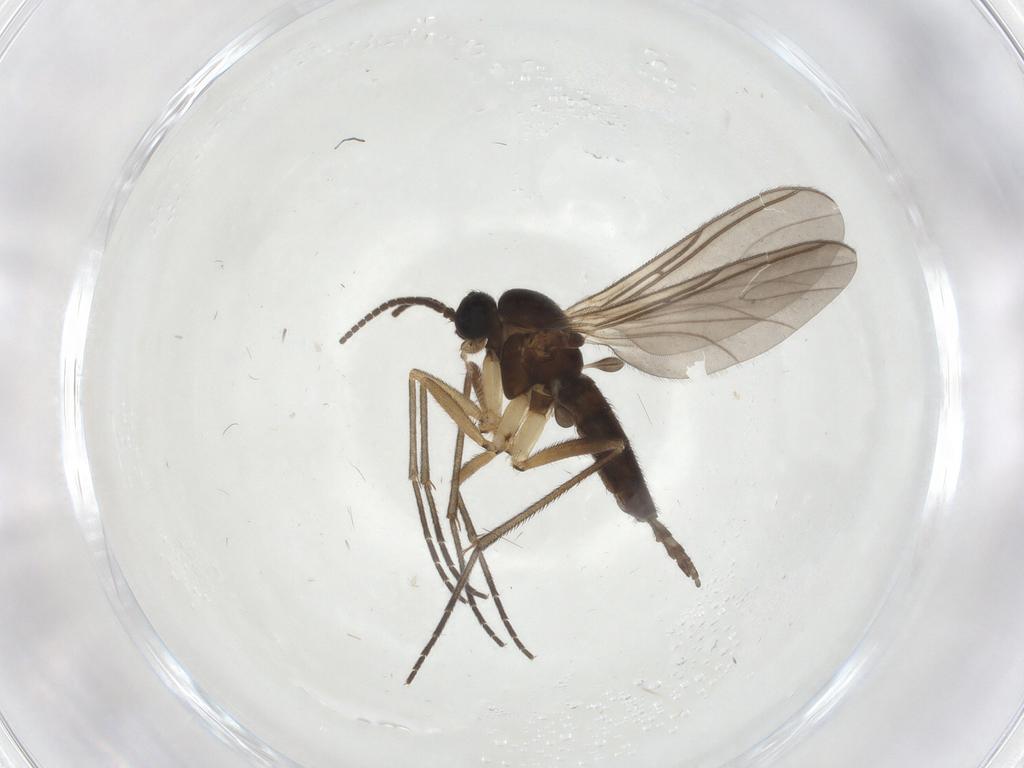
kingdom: Animalia
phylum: Arthropoda
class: Insecta
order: Diptera
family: Sciaridae
